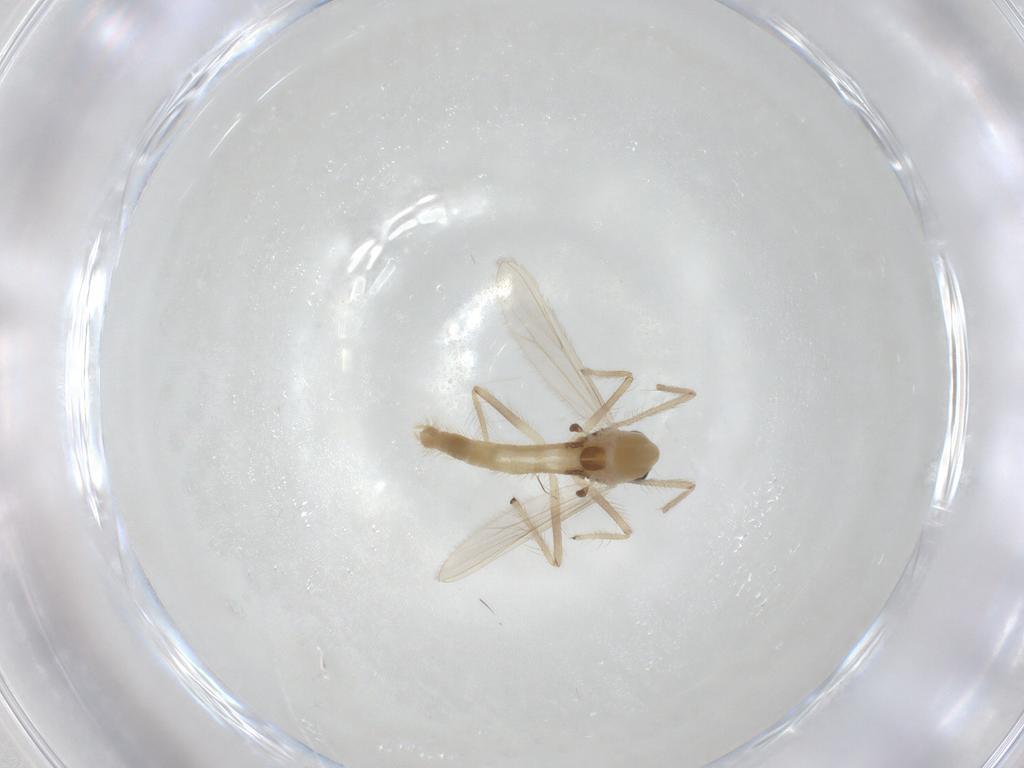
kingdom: Animalia
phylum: Arthropoda
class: Insecta
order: Diptera
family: Chironomidae
